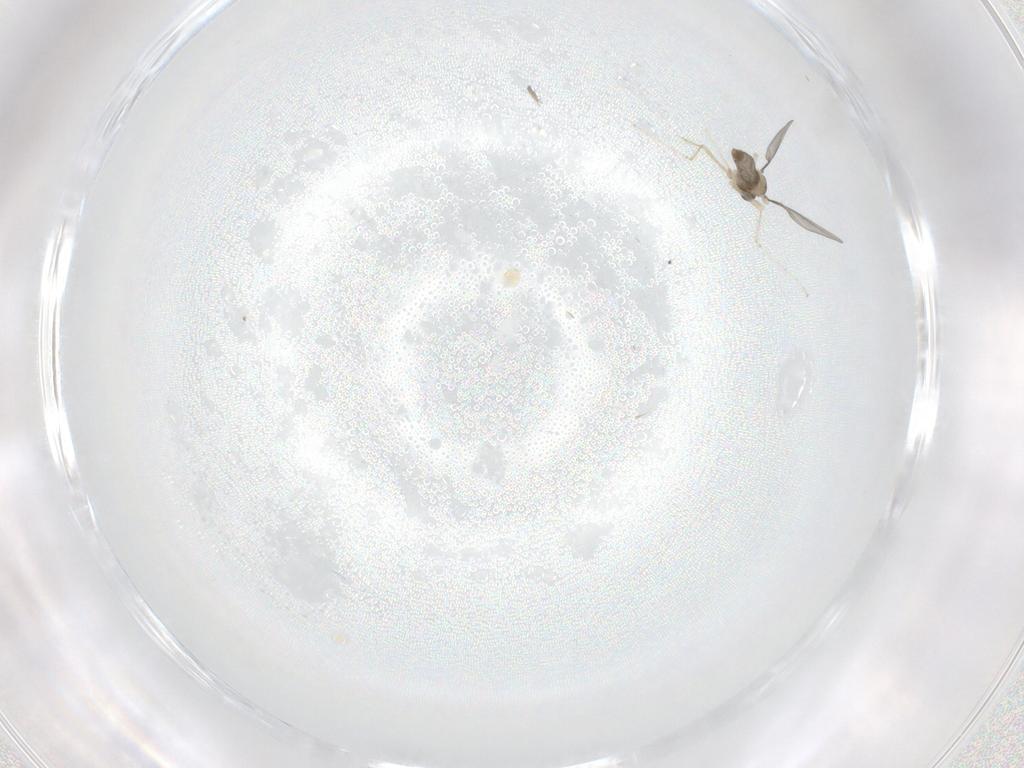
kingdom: Animalia
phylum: Arthropoda
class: Insecta
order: Diptera
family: Cecidomyiidae
